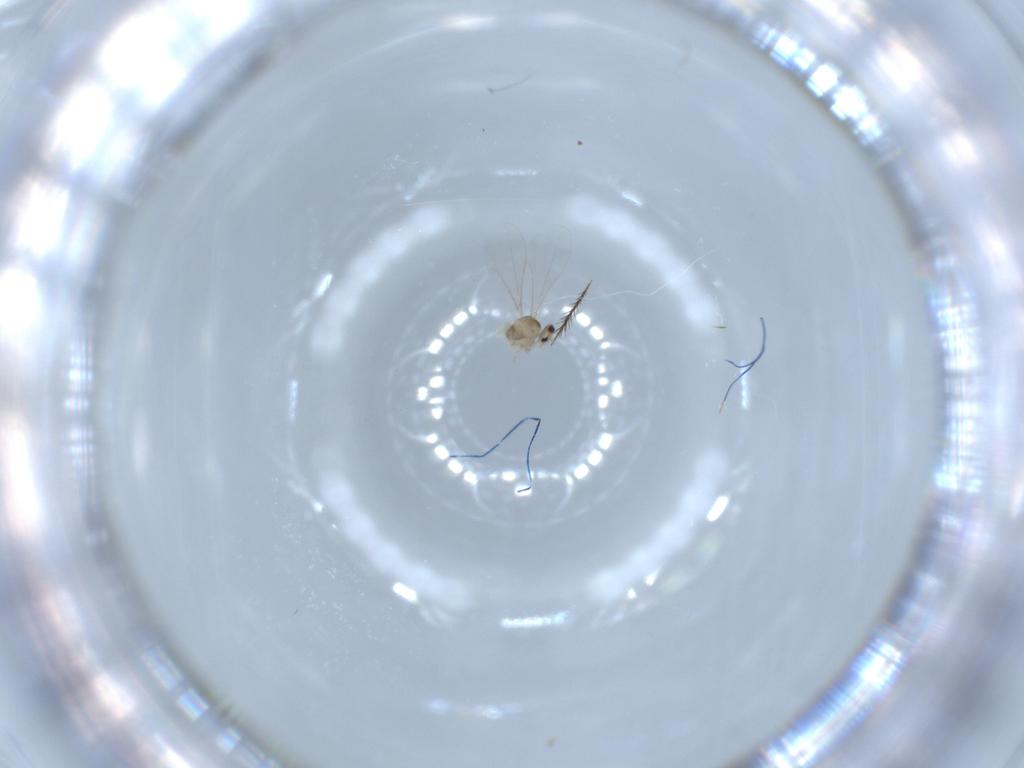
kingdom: Animalia
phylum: Arthropoda
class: Insecta
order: Diptera
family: Cecidomyiidae
